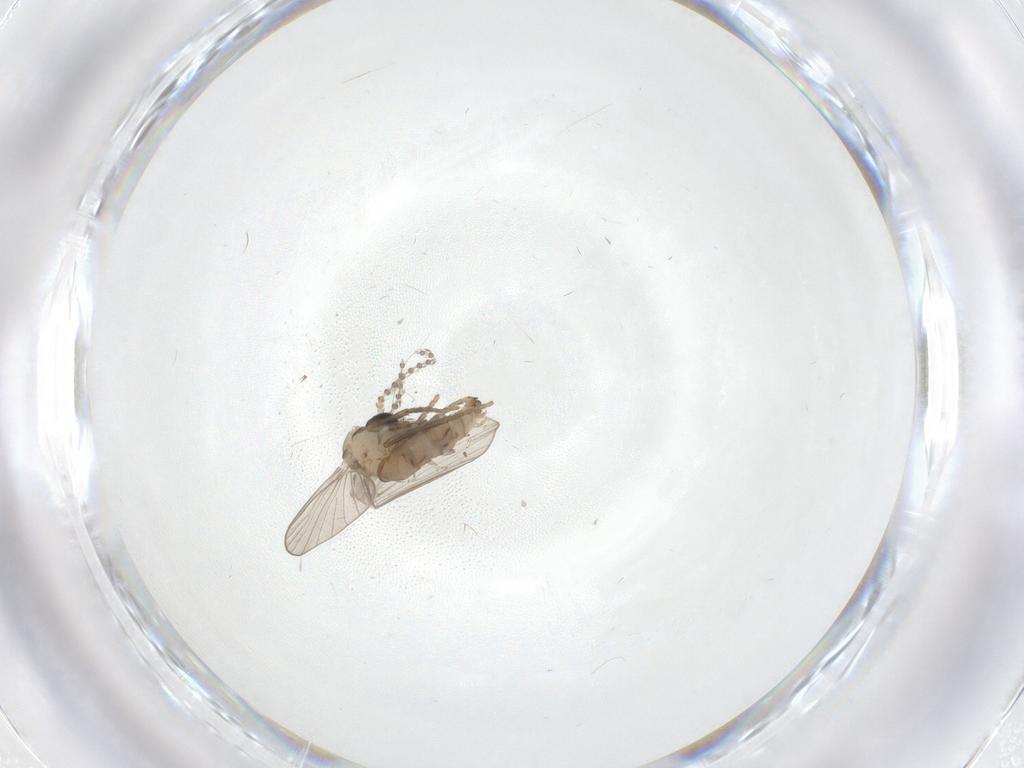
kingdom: Animalia
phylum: Arthropoda
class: Insecta
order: Diptera
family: Psychodidae
